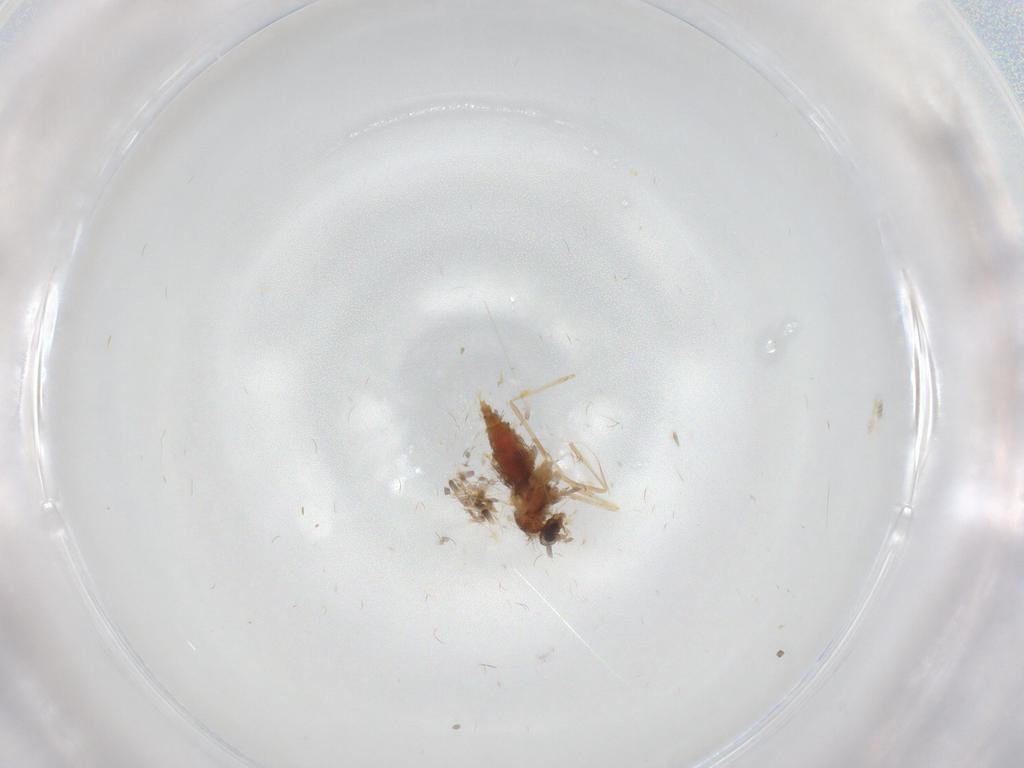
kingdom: Animalia
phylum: Arthropoda
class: Insecta
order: Diptera
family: Cecidomyiidae
